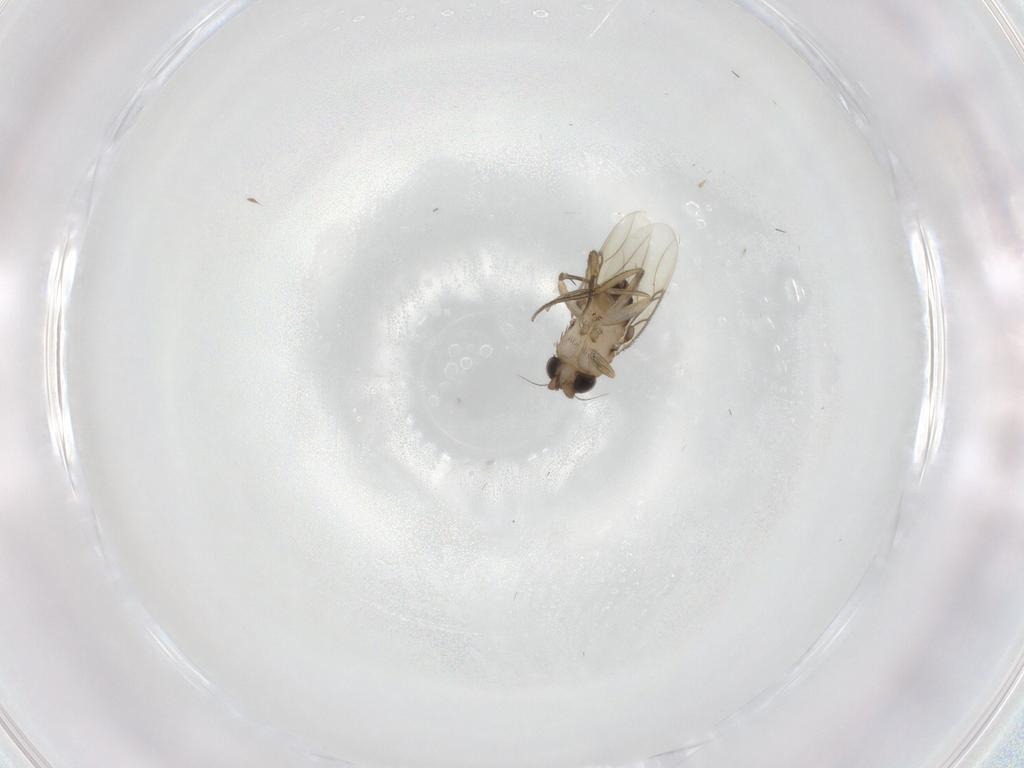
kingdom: Animalia
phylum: Arthropoda
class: Insecta
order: Diptera
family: Phoridae
